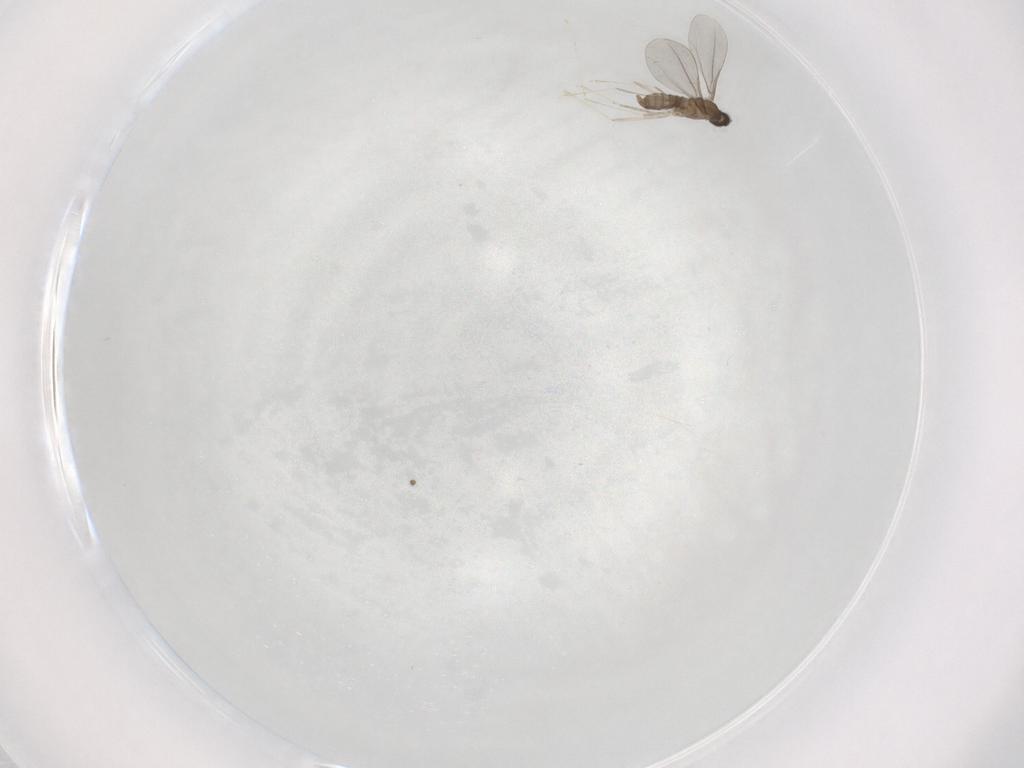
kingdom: Animalia
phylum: Arthropoda
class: Insecta
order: Diptera
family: Cecidomyiidae
